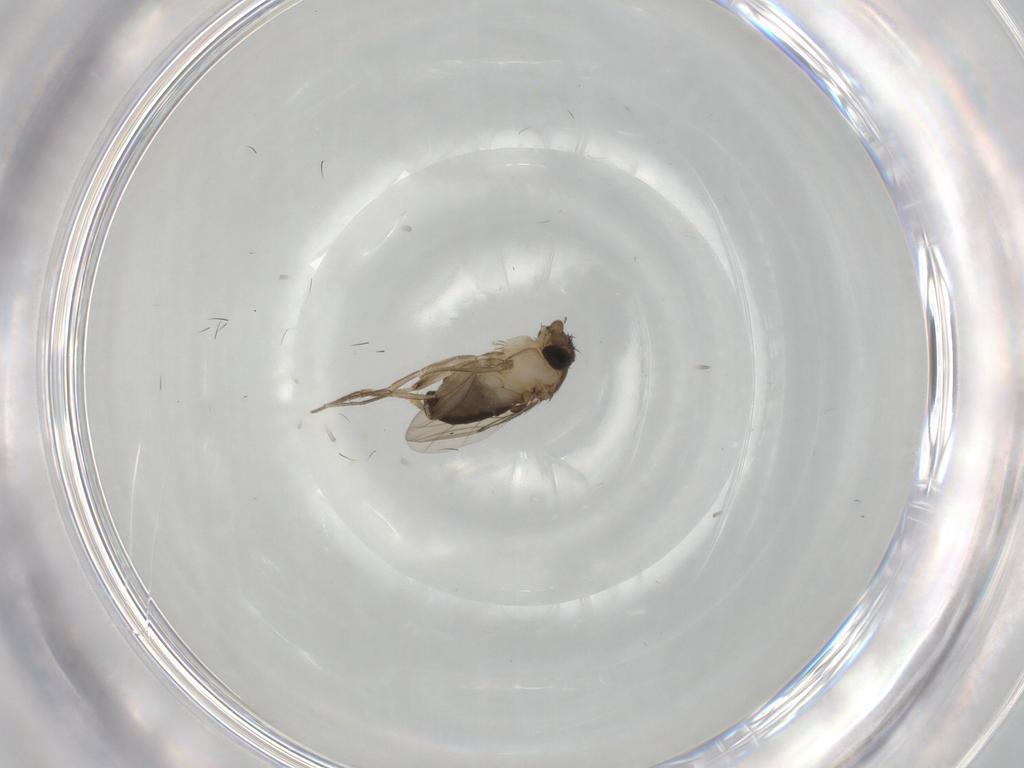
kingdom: Animalia
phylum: Arthropoda
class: Insecta
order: Diptera
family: Phoridae
